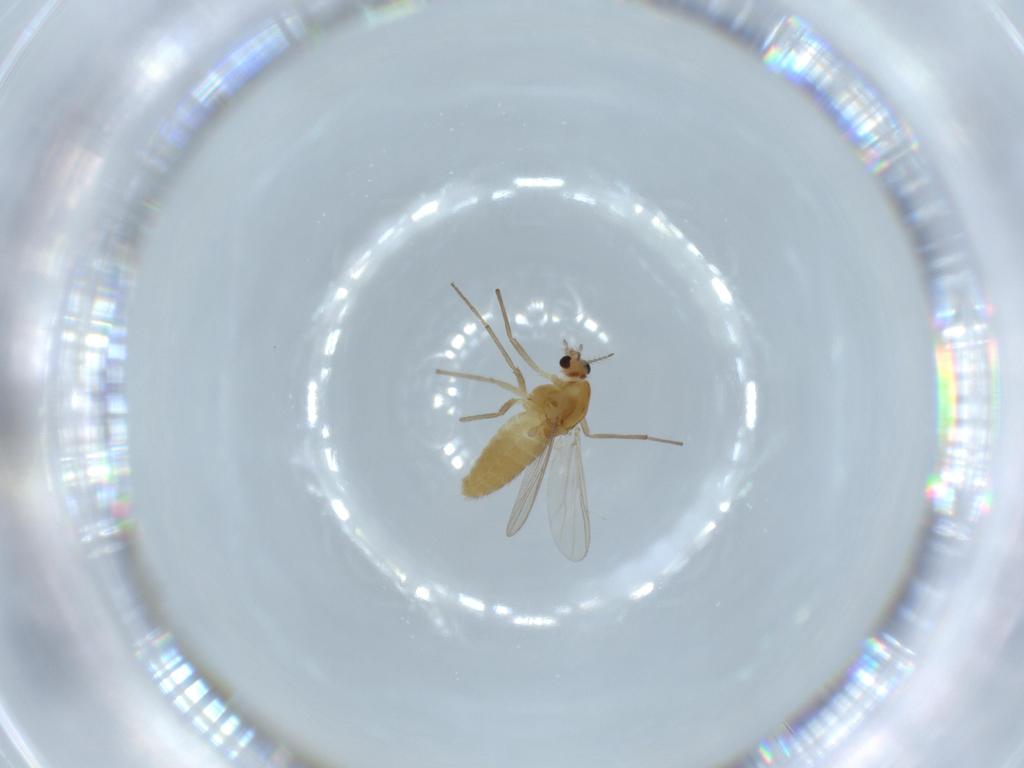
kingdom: Animalia
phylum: Arthropoda
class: Insecta
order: Diptera
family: Chironomidae
